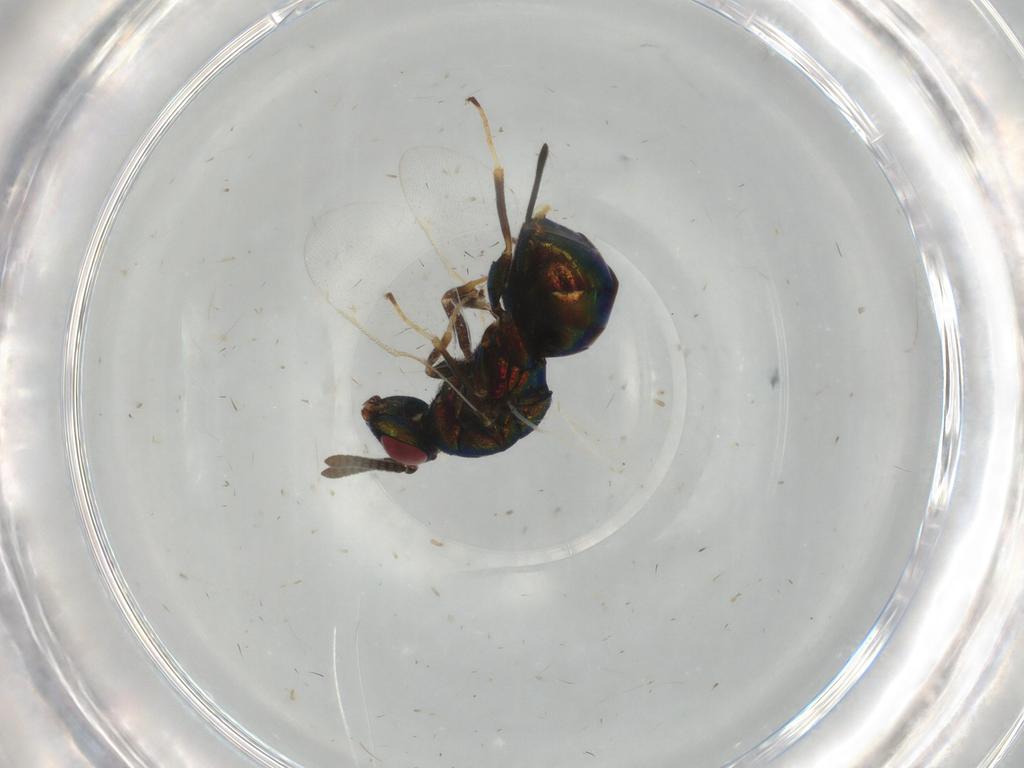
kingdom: Animalia
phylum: Arthropoda
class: Insecta
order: Hymenoptera
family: Torymidae
